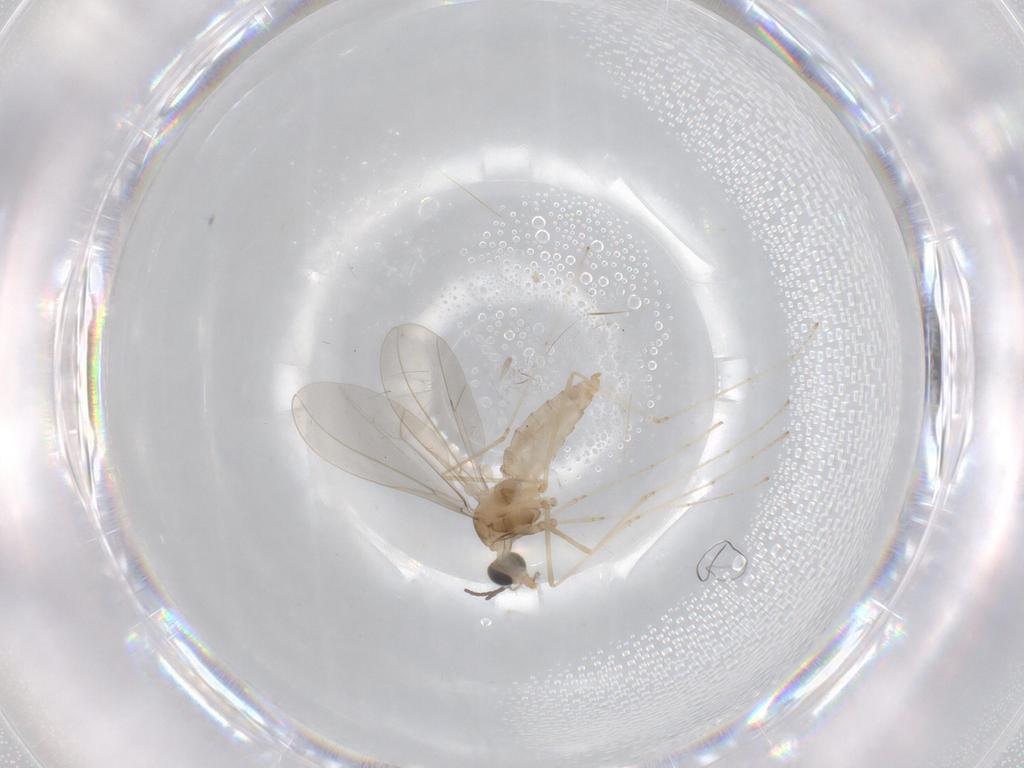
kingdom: Animalia
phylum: Arthropoda
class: Insecta
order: Diptera
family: Cecidomyiidae
